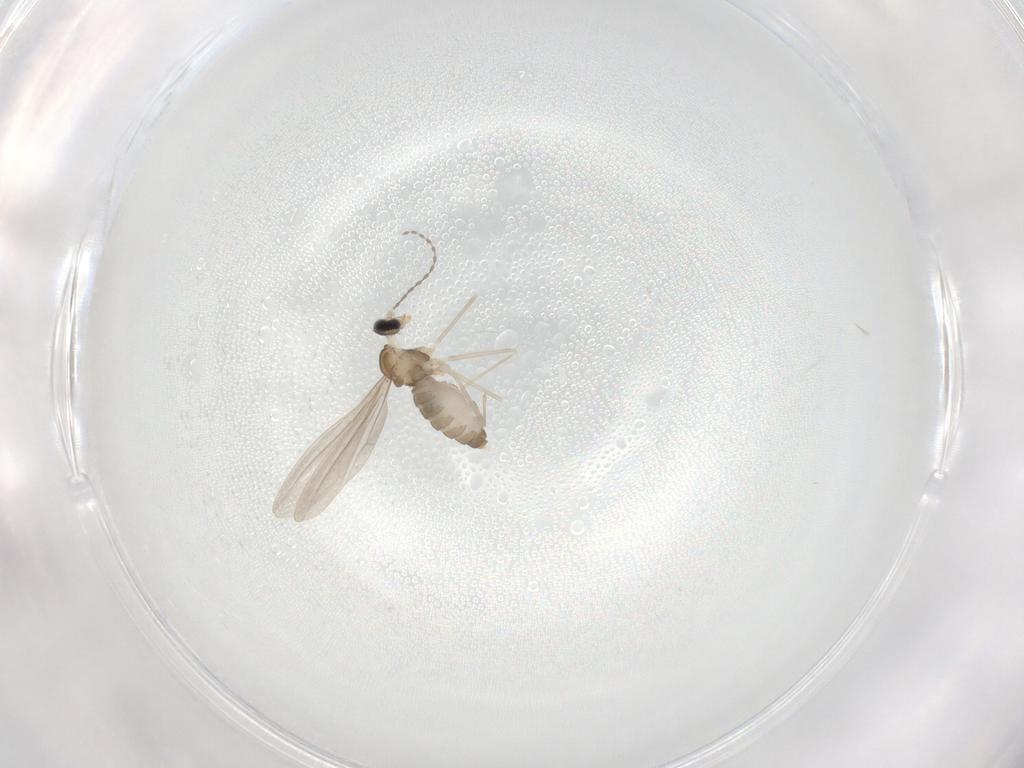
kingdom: Animalia
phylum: Arthropoda
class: Insecta
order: Diptera
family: Cecidomyiidae
